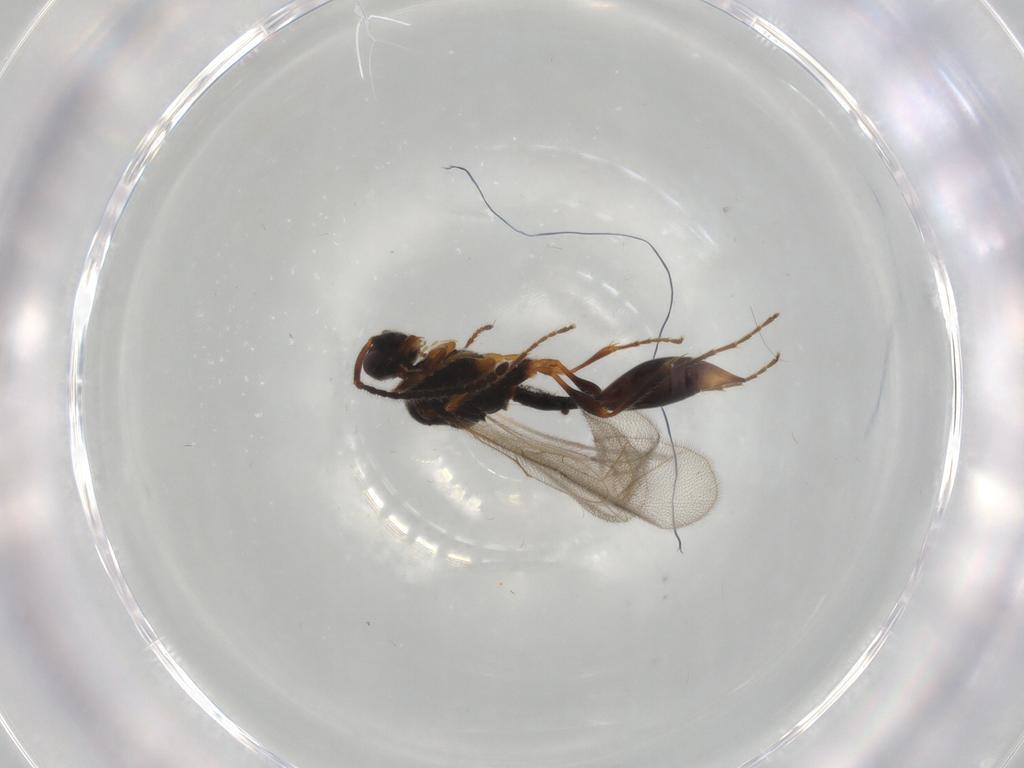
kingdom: Animalia
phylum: Arthropoda
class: Insecta
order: Hymenoptera
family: Diapriidae
